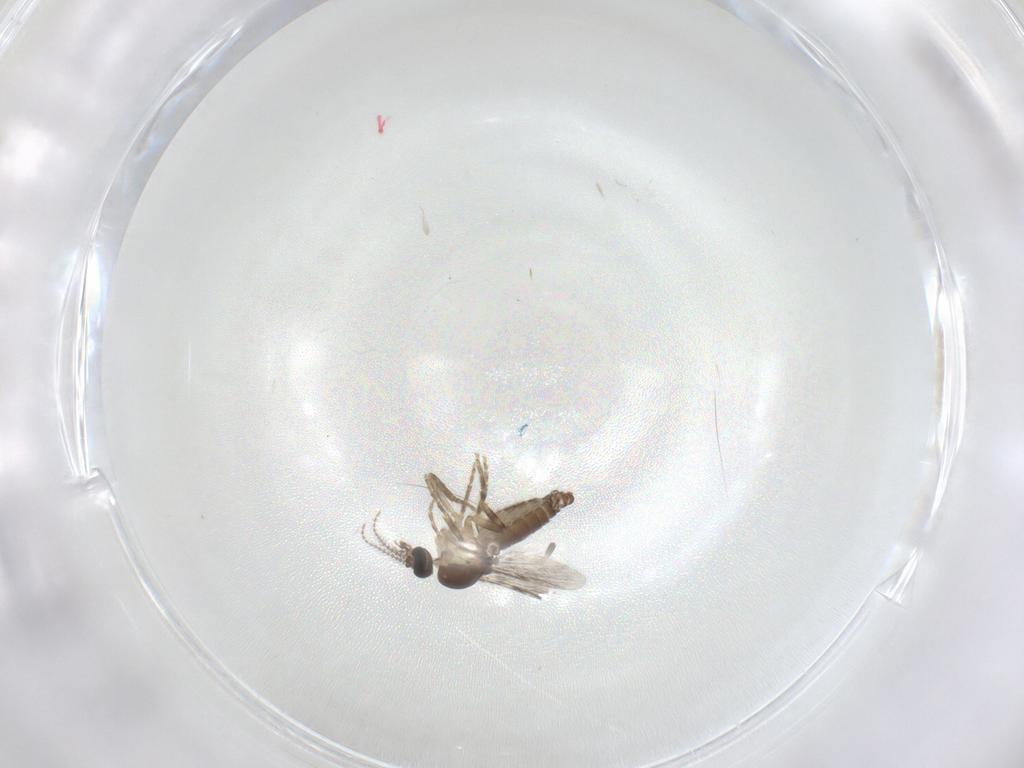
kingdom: Animalia
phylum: Arthropoda
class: Insecta
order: Diptera
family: Ceratopogonidae
